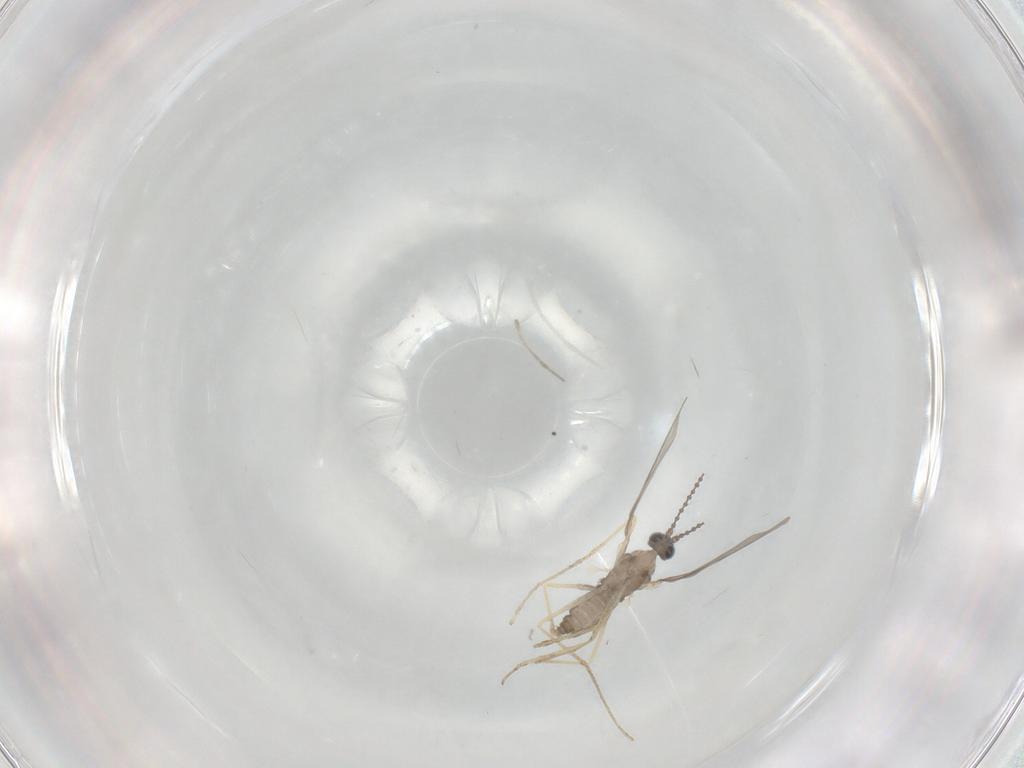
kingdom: Animalia
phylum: Arthropoda
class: Insecta
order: Diptera
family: Cecidomyiidae
